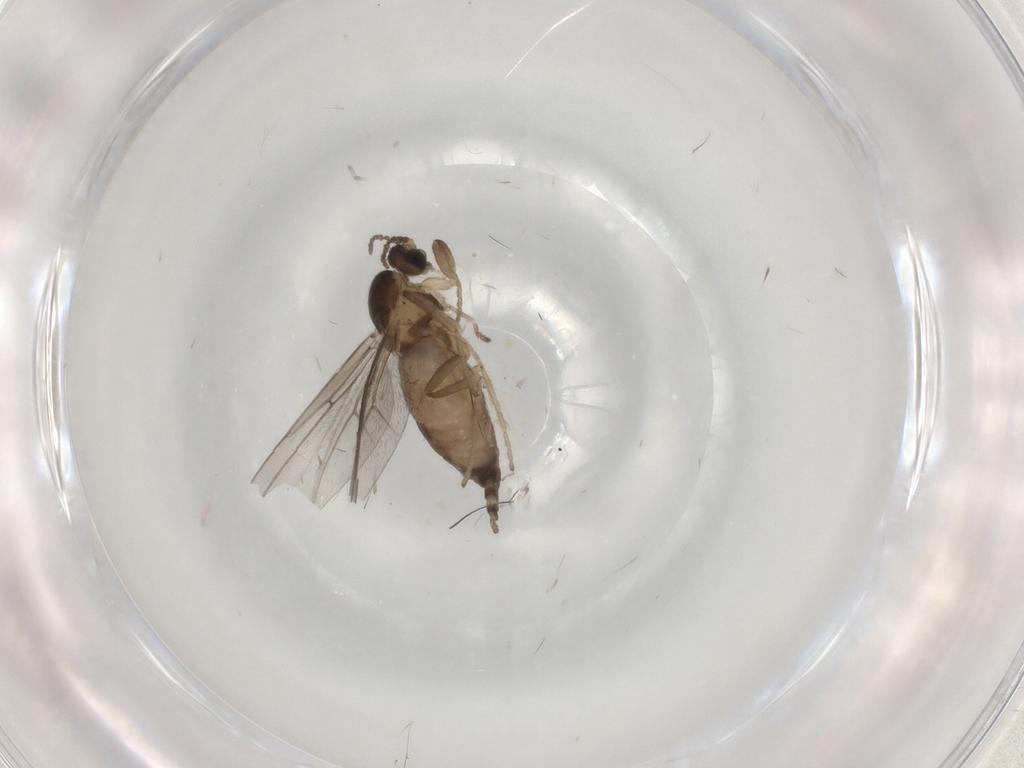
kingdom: Animalia
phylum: Arthropoda
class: Insecta
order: Diptera
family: Cecidomyiidae
